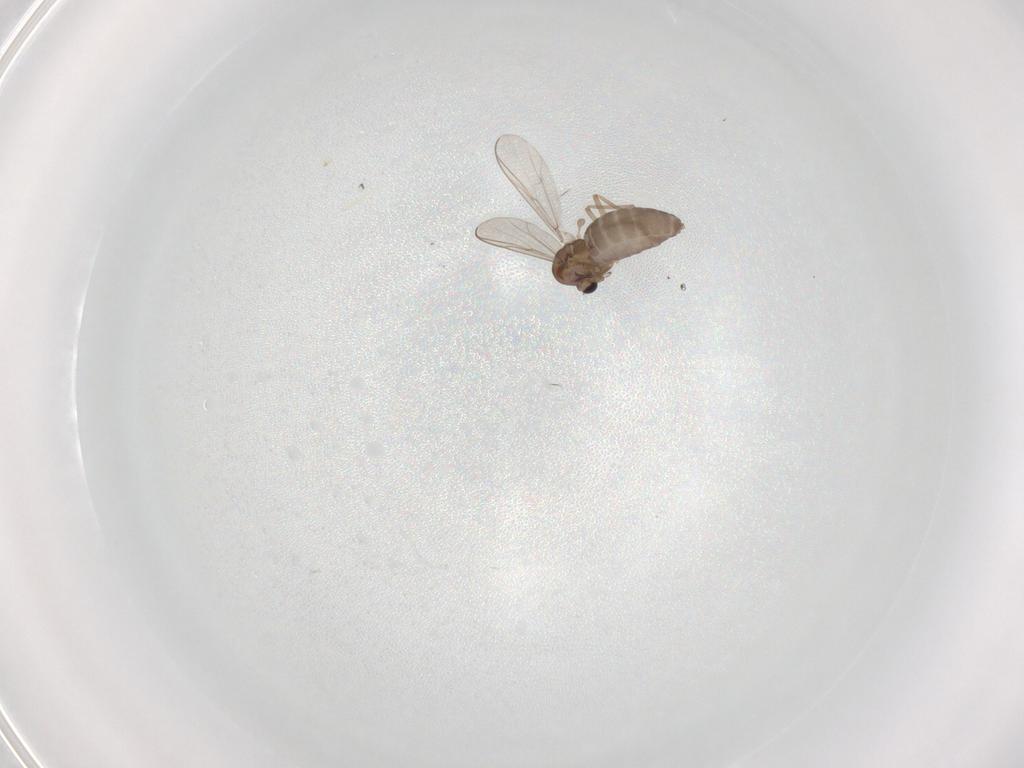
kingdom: Animalia
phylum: Arthropoda
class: Insecta
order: Diptera
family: Chironomidae
